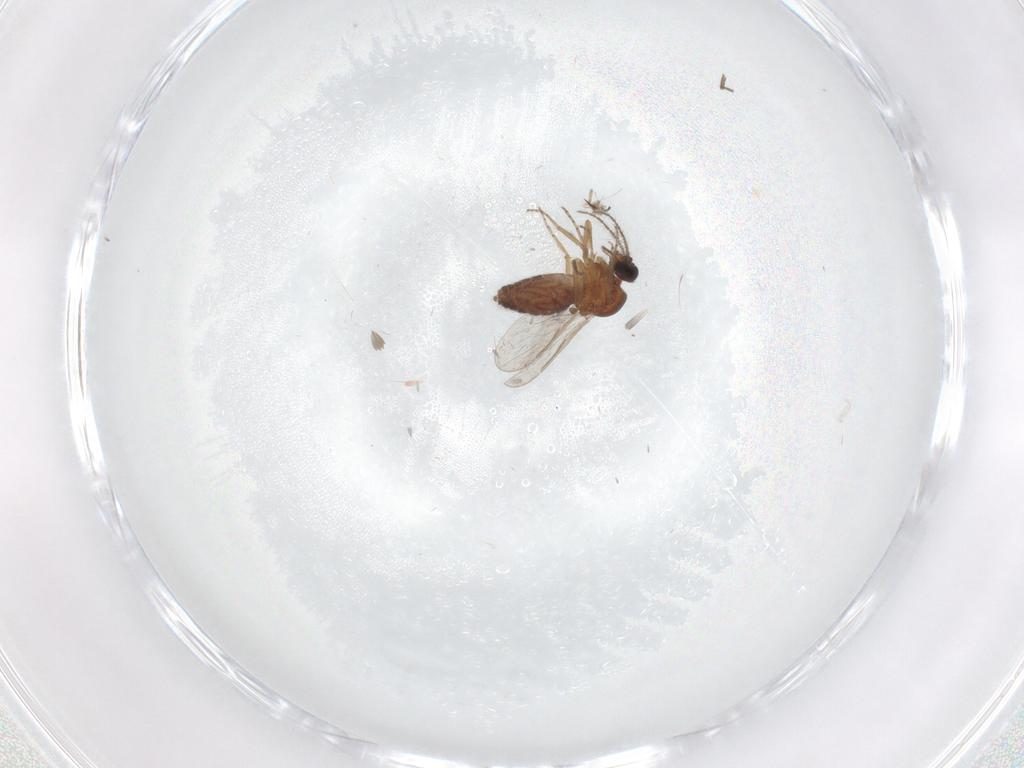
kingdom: Animalia
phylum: Arthropoda
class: Insecta
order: Diptera
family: Ceratopogonidae
